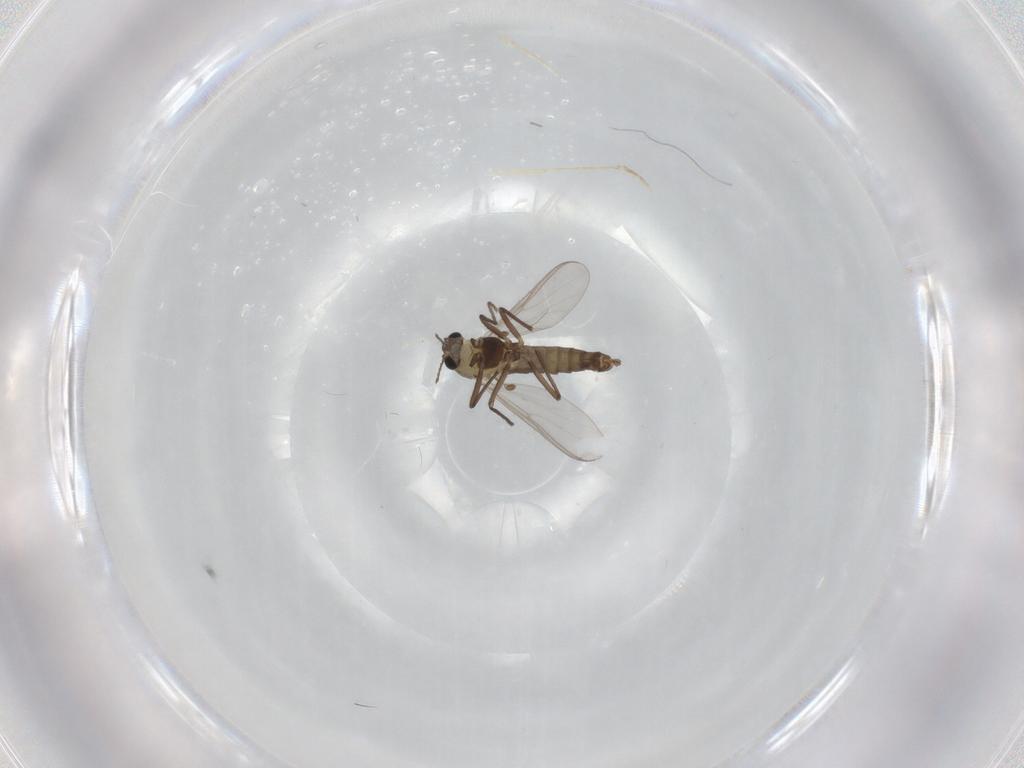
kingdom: Animalia
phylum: Arthropoda
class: Insecta
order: Diptera
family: Chironomidae
